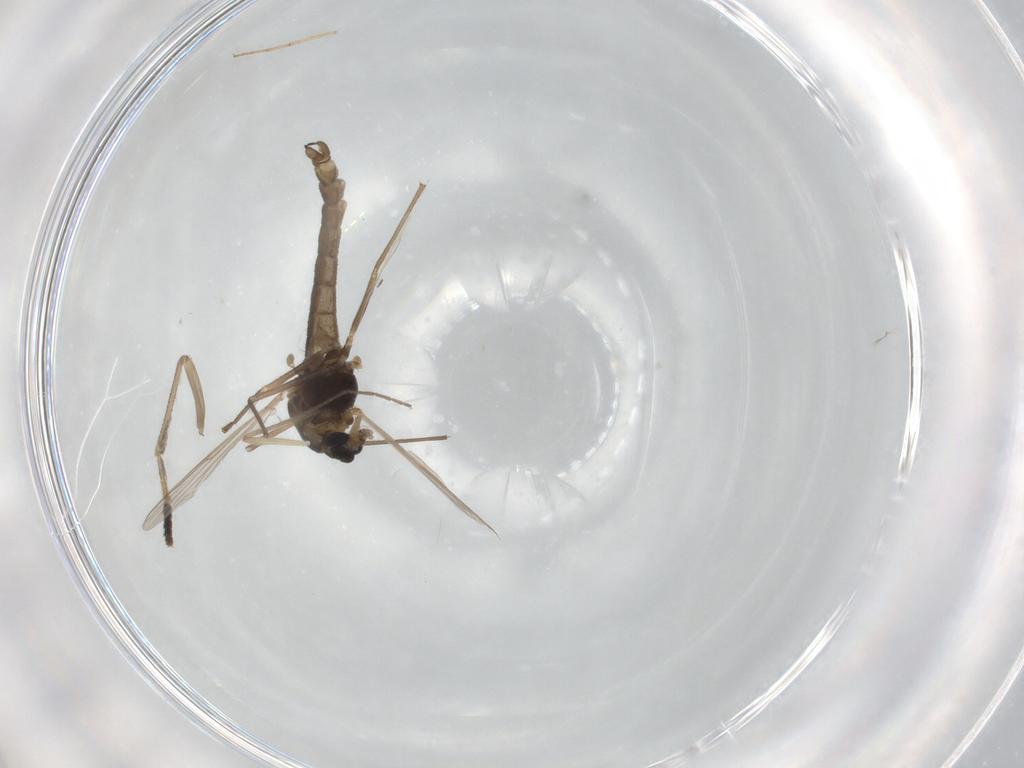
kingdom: Animalia
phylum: Arthropoda
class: Insecta
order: Diptera
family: Chironomidae
